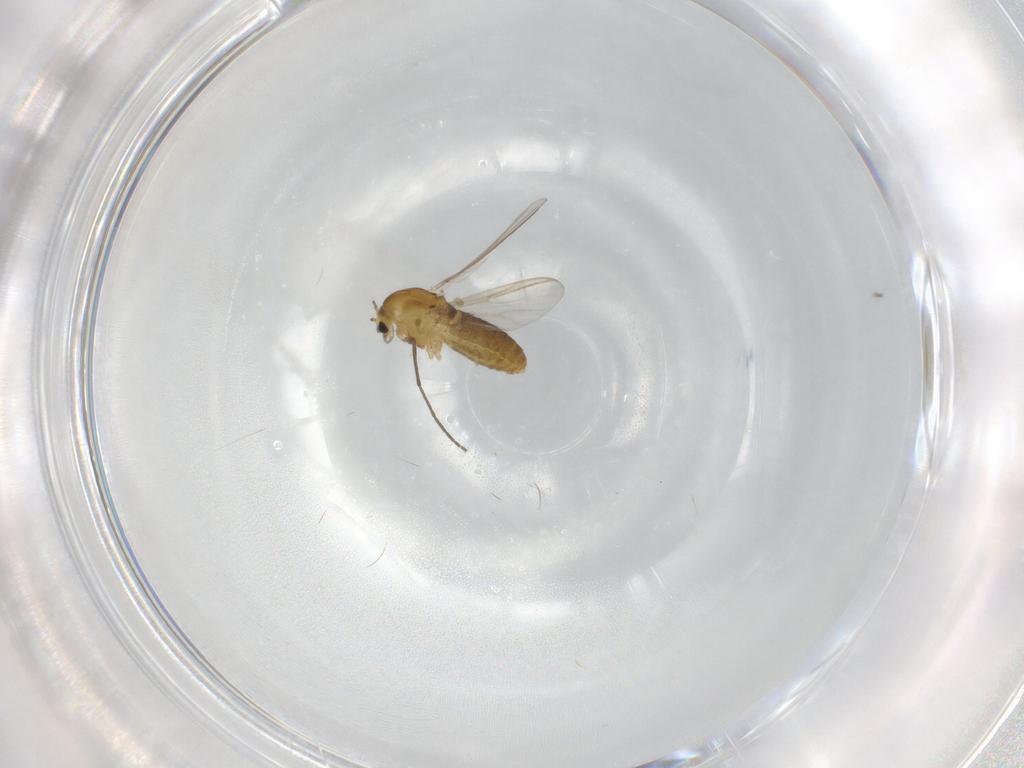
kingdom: Animalia
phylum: Arthropoda
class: Insecta
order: Diptera
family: Chironomidae
